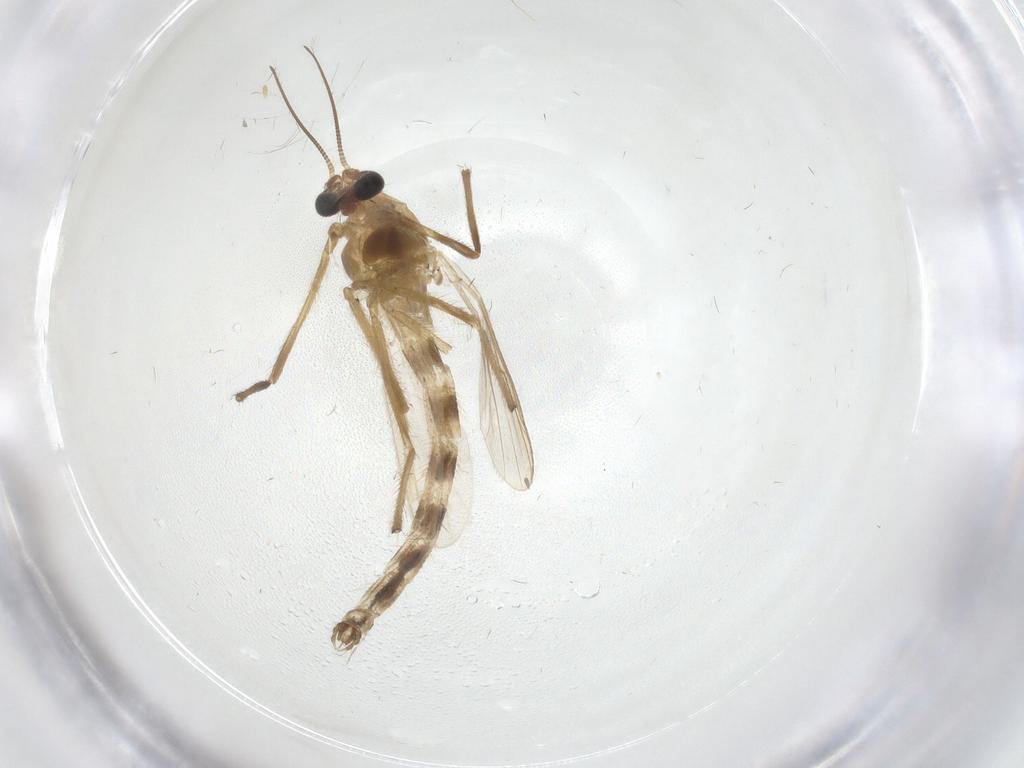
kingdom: Animalia
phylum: Arthropoda
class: Insecta
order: Diptera
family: Chironomidae
